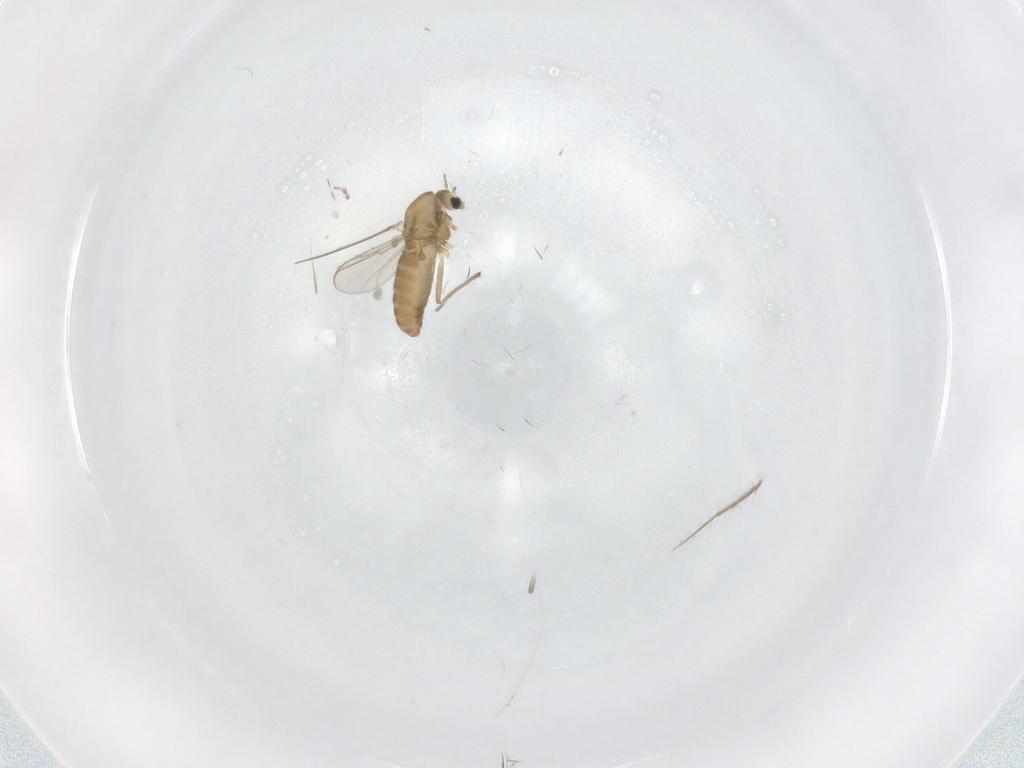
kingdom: Animalia
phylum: Arthropoda
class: Insecta
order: Diptera
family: Chironomidae
